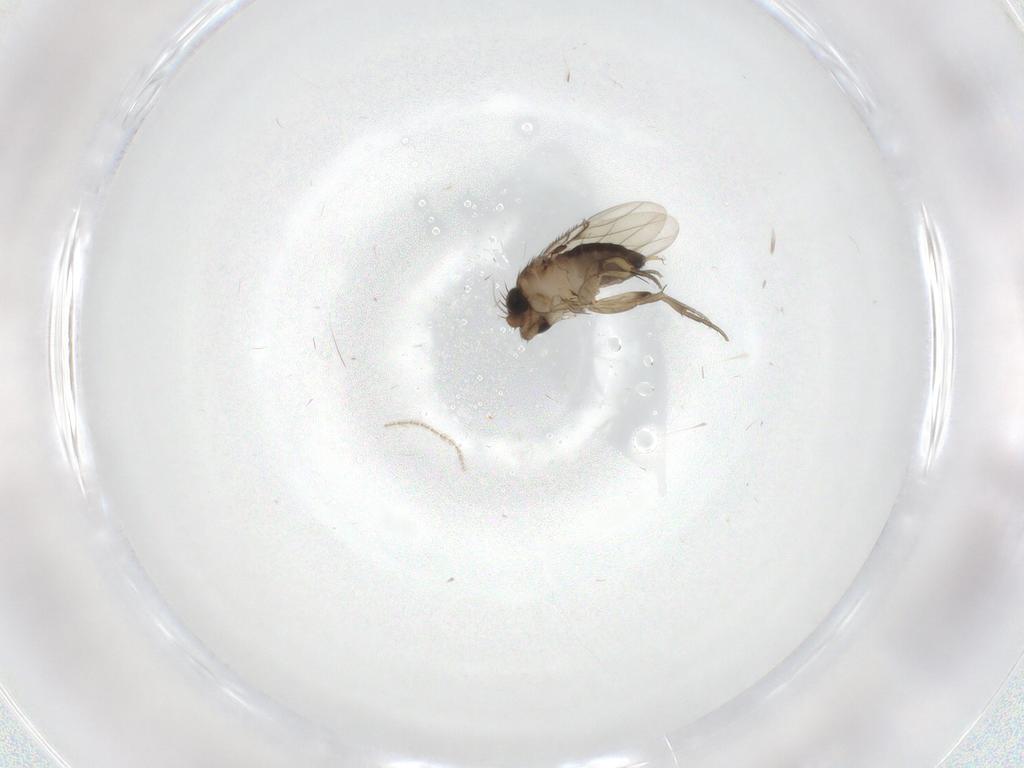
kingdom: Animalia
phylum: Arthropoda
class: Insecta
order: Diptera
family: Phoridae
